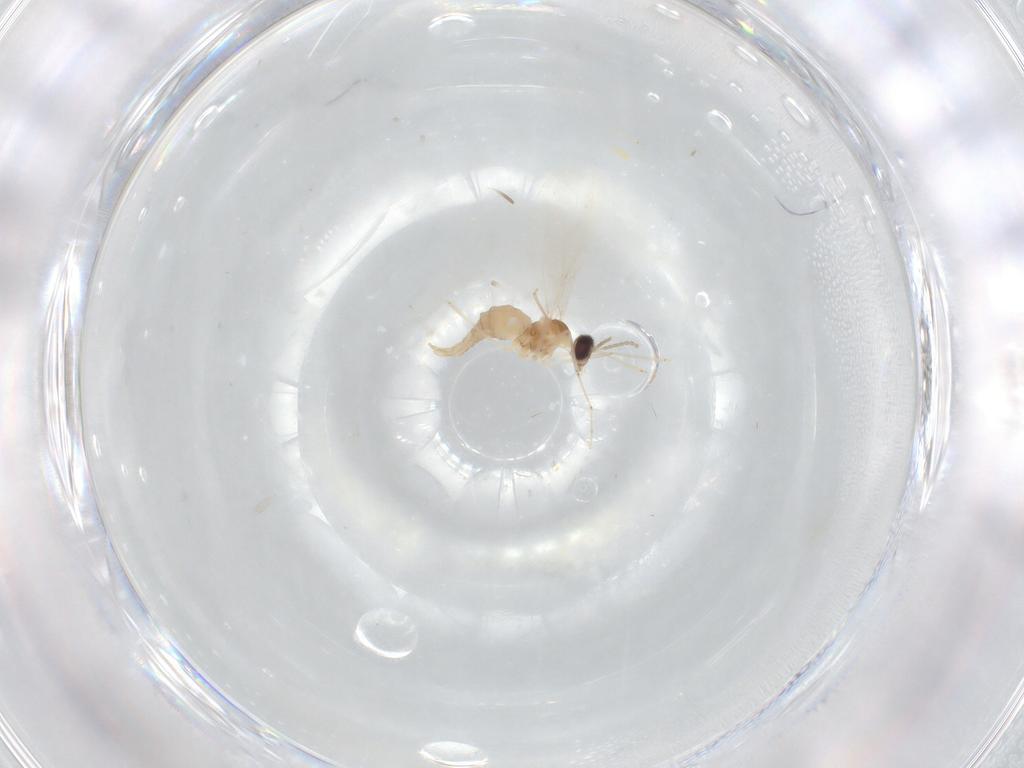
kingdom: Animalia
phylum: Arthropoda
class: Insecta
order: Diptera
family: Cecidomyiidae
